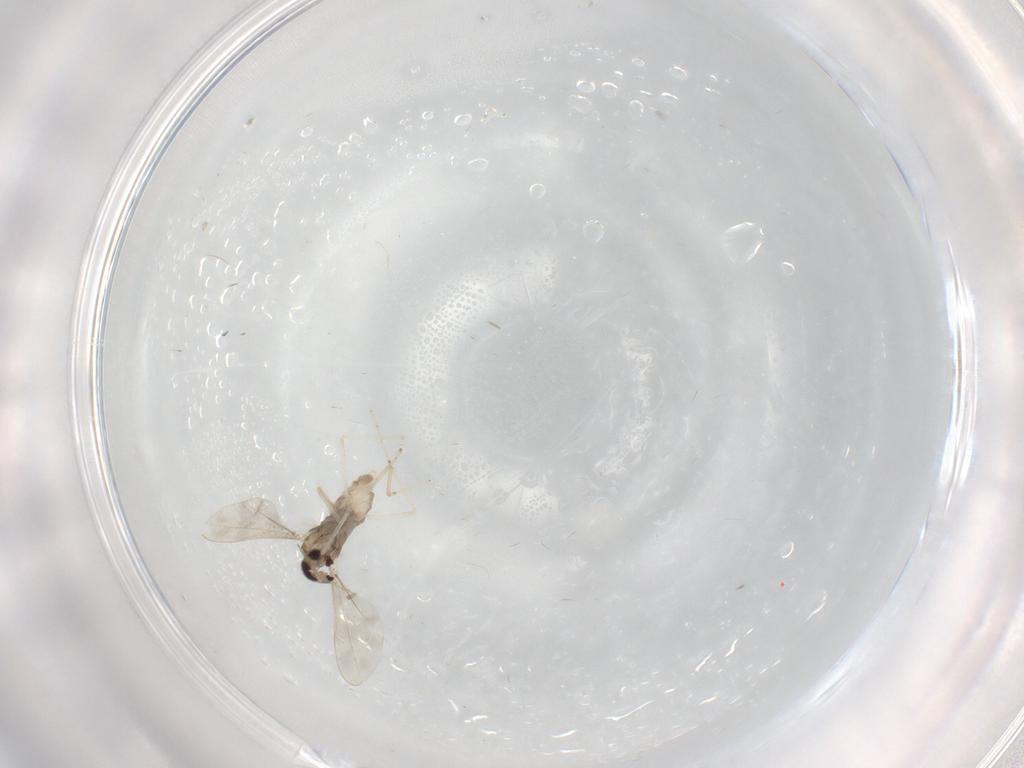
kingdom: Animalia
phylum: Arthropoda
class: Insecta
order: Diptera
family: Cecidomyiidae
